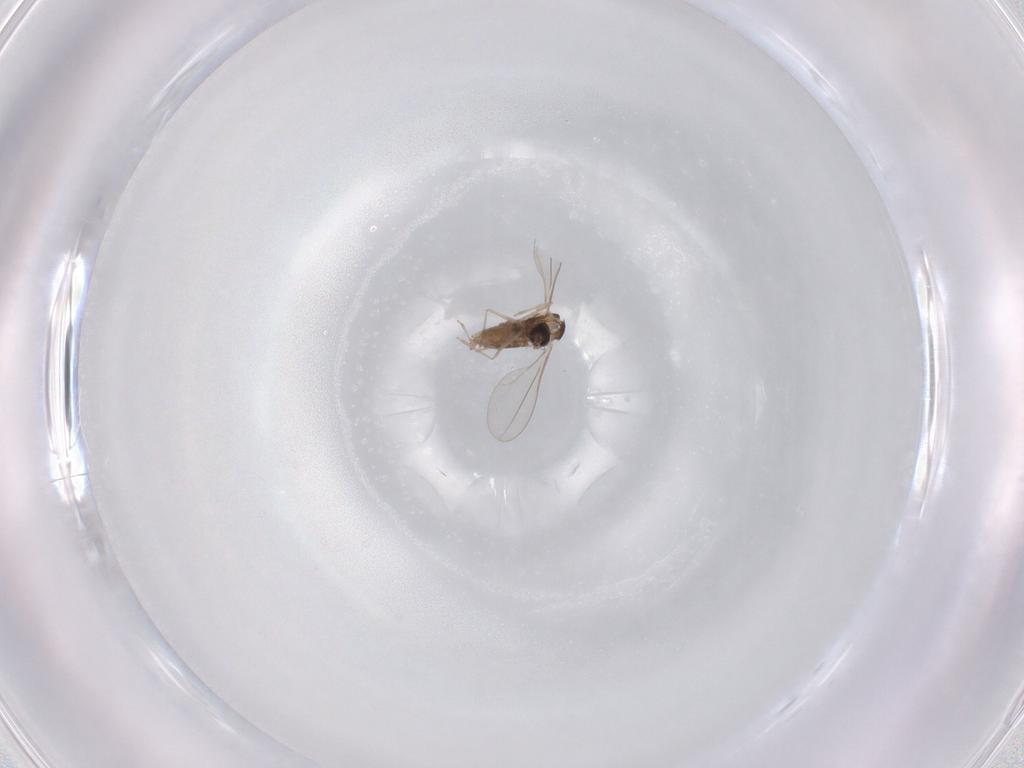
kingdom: Animalia
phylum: Arthropoda
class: Insecta
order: Diptera
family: Cecidomyiidae
